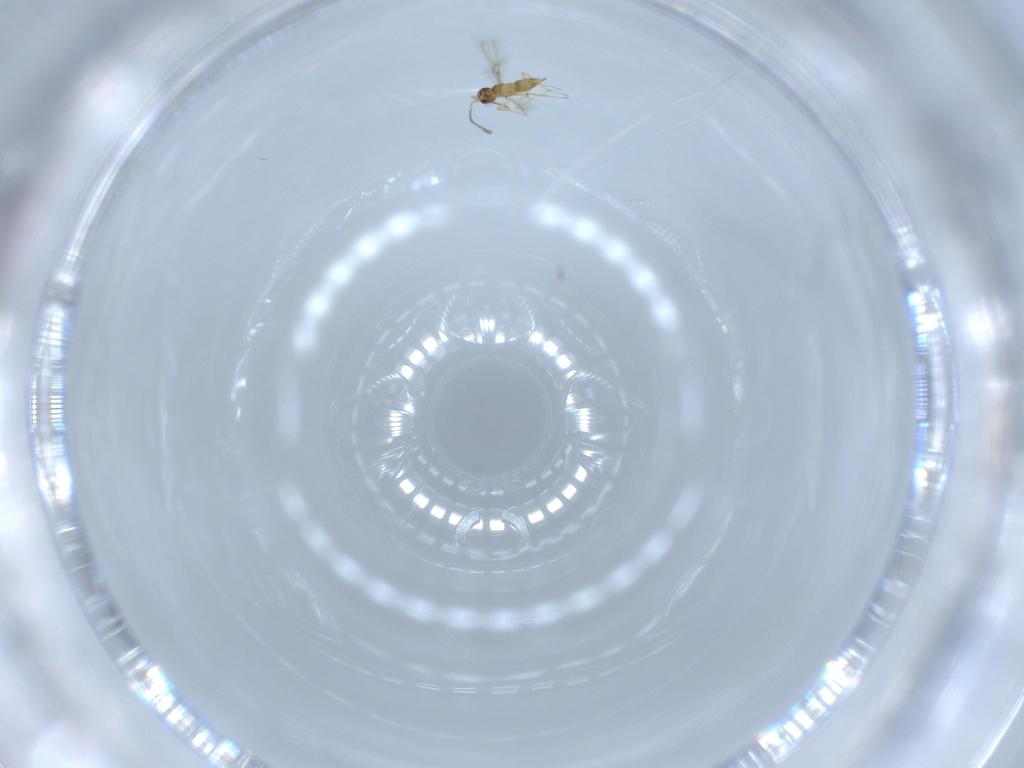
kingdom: Animalia
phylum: Arthropoda
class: Insecta
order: Hymenoptera
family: Mymaridae
